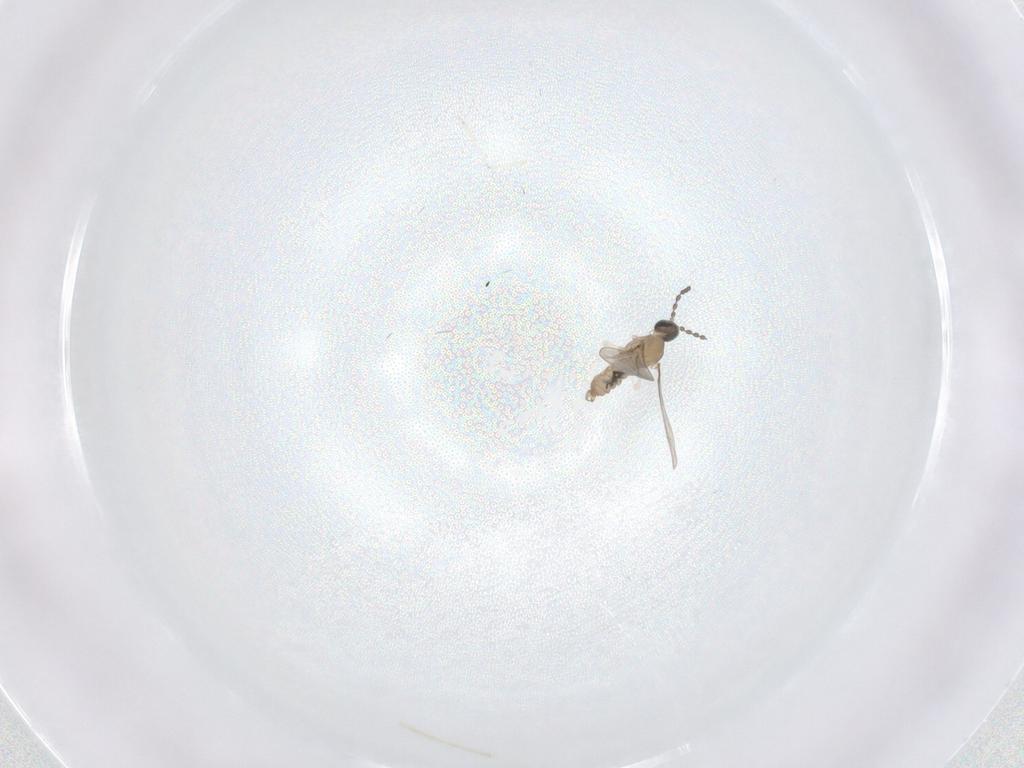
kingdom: Animalia
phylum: Arthropoda
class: Insecta
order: Diptera
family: Cecidomyiidae
